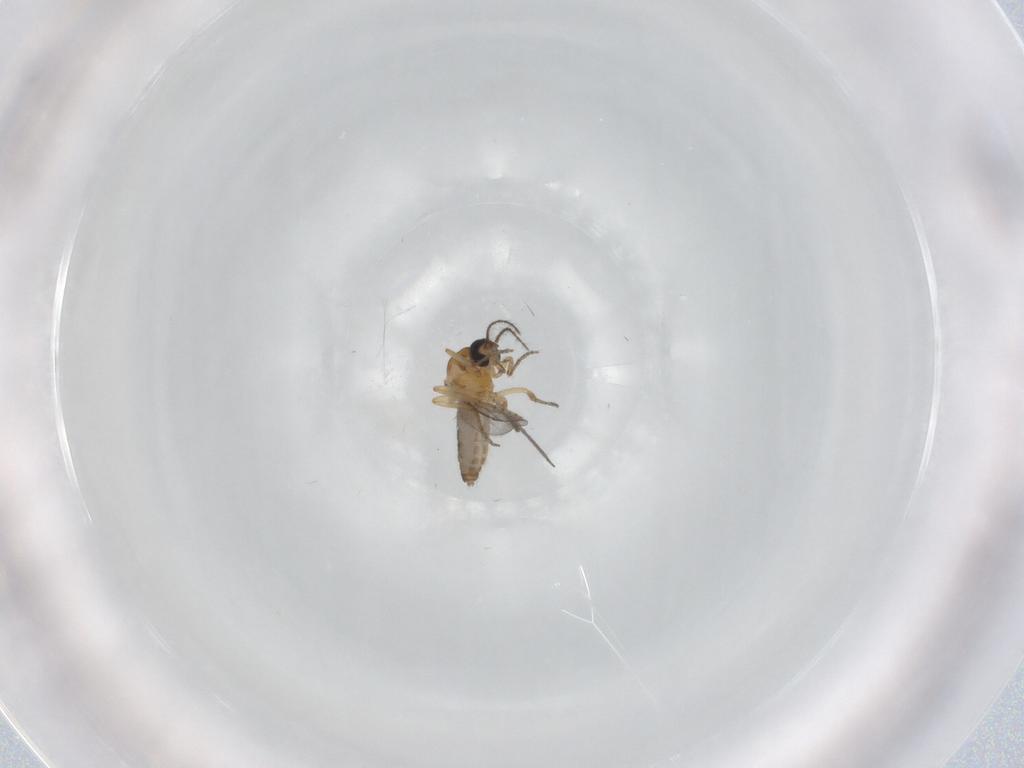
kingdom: Animalia
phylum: Arthropoda
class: Insecta
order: Diptera
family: Ceratopogonidae
